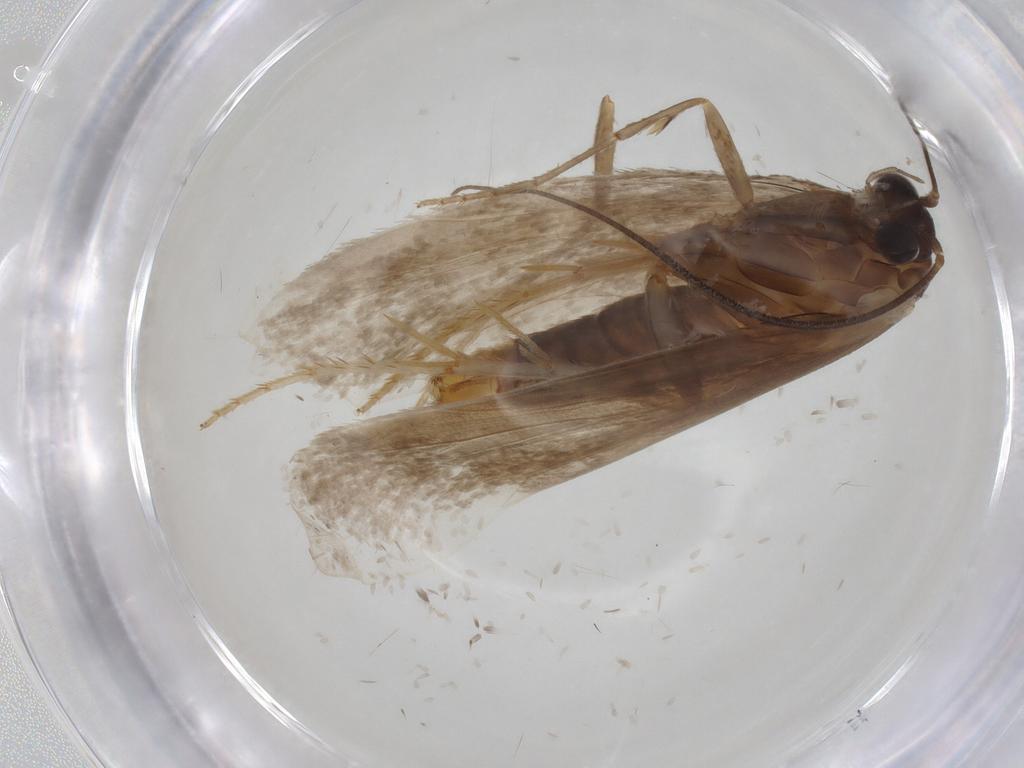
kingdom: Animalia
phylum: Arthropoda
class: Insecta
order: Lepidoptera
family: Tridentaformidae
